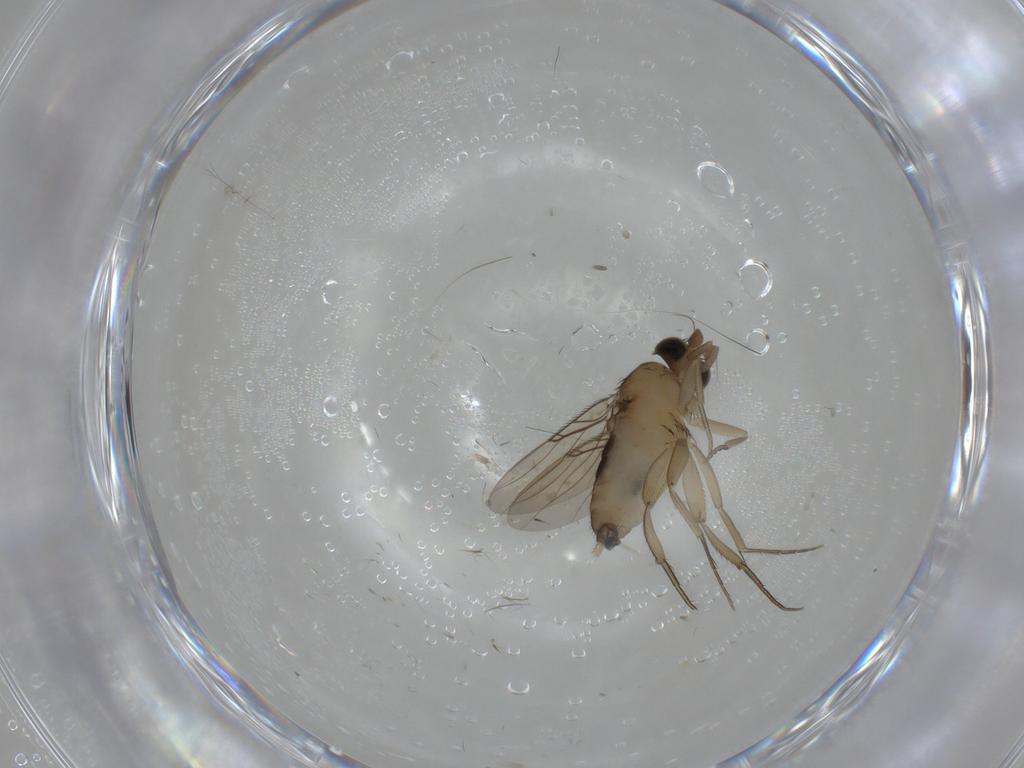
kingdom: Animalia
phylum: Arthropoda
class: Insecta
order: Diptera
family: Phoridae
